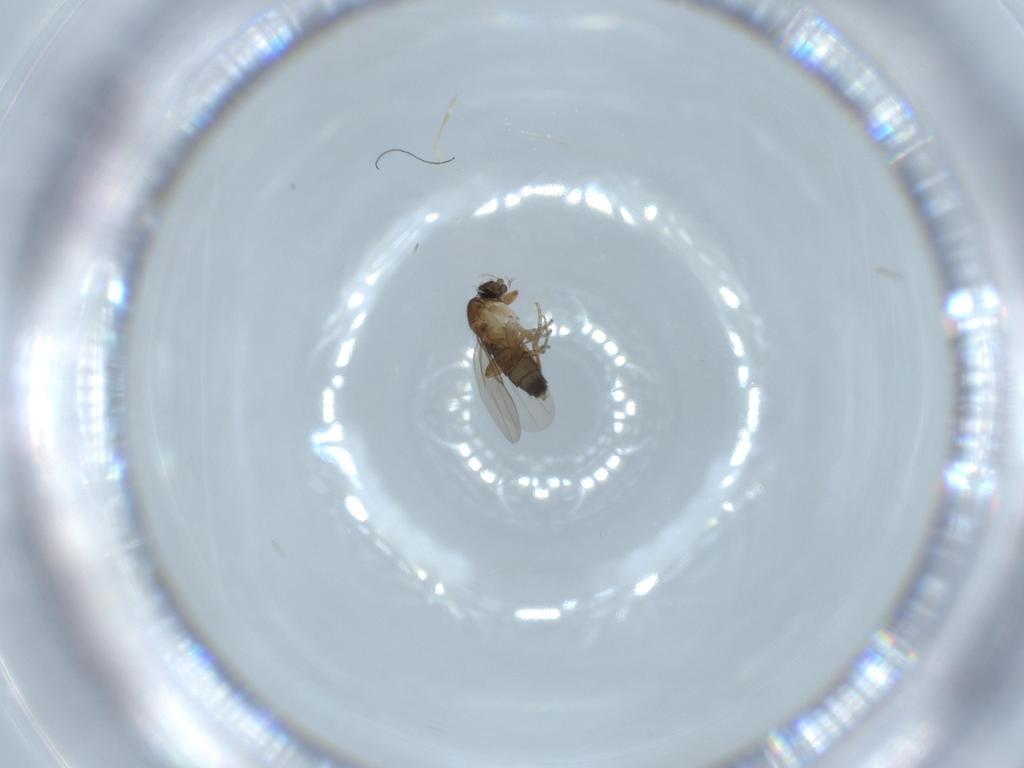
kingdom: Animalia
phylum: Arthropoda
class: Insecta
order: Diptera
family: Phoridae
